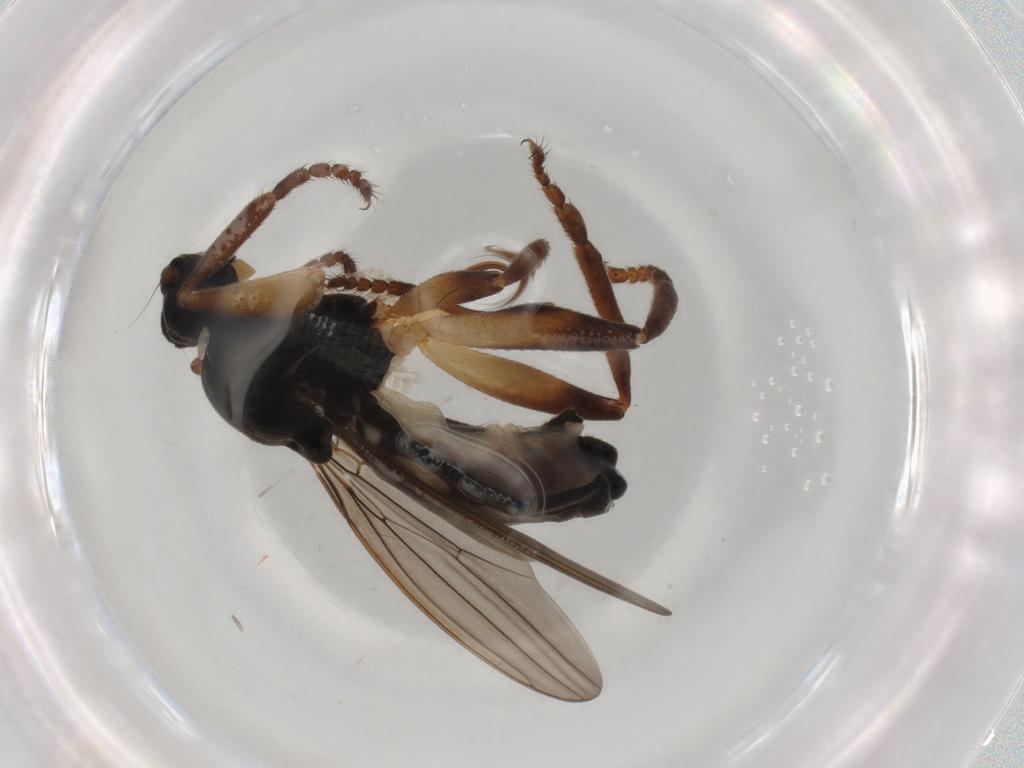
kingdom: Animalia
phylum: Arthropoda
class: Insecta
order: Diptera
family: Sphaeroceridae
